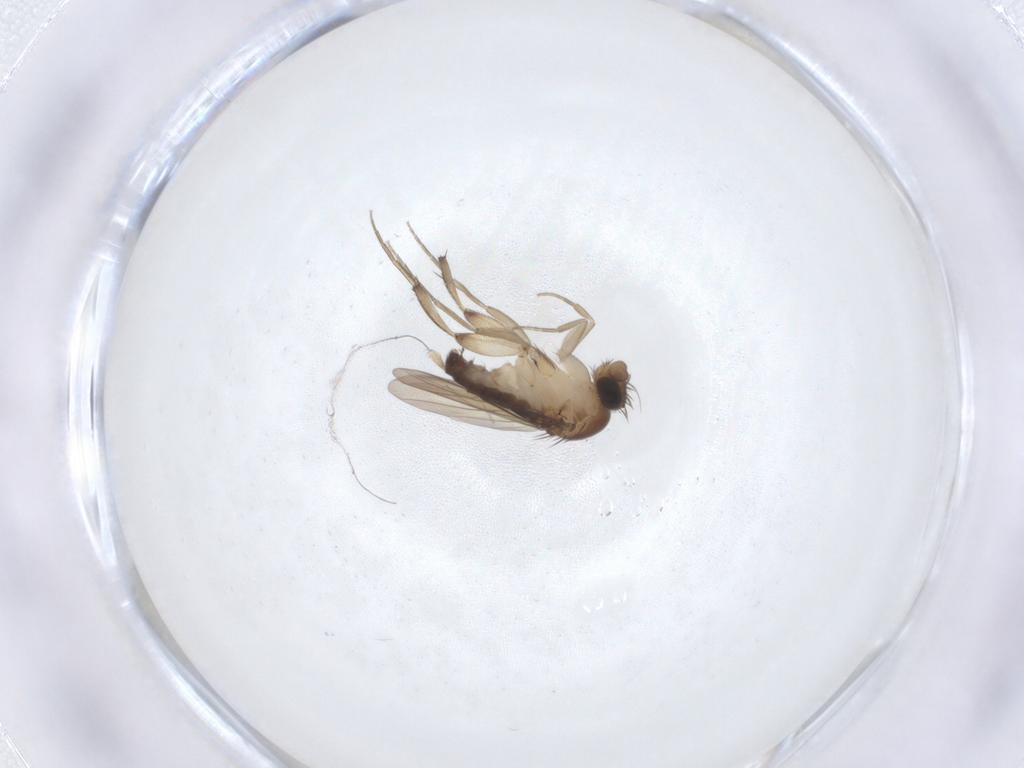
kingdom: Animalia
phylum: Arthropoda
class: Insecta
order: Diptera
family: Phoridae
